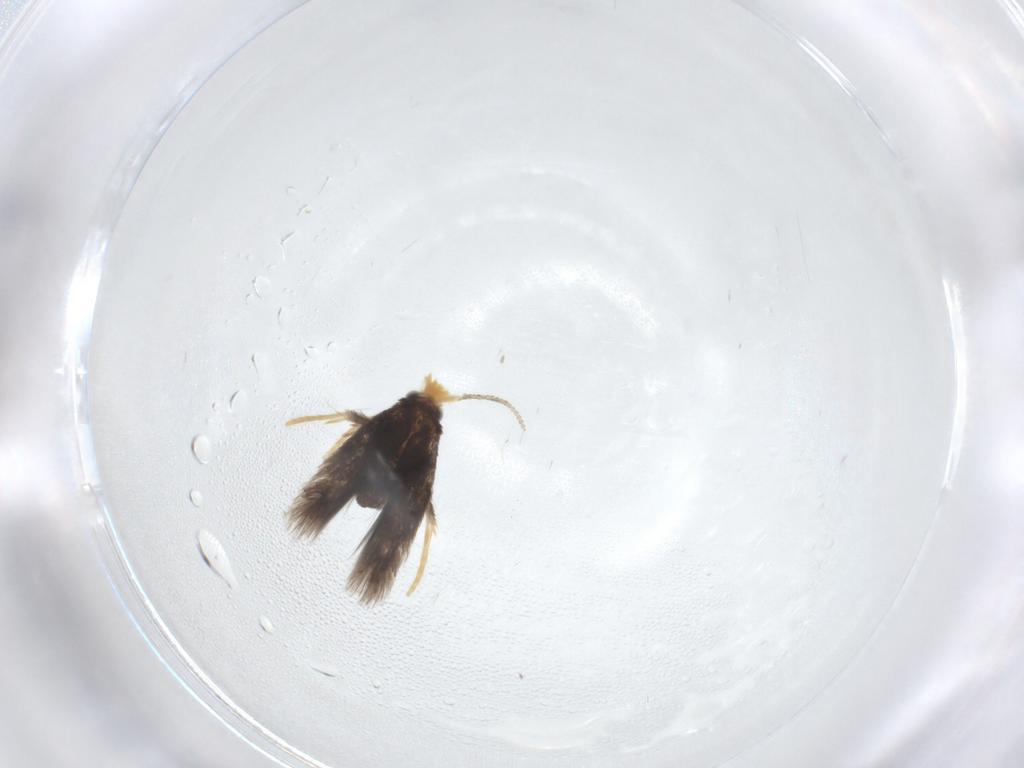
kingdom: Animalia
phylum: Arthropoda
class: Insecta
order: Lepidoptera
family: Nepticulidae
